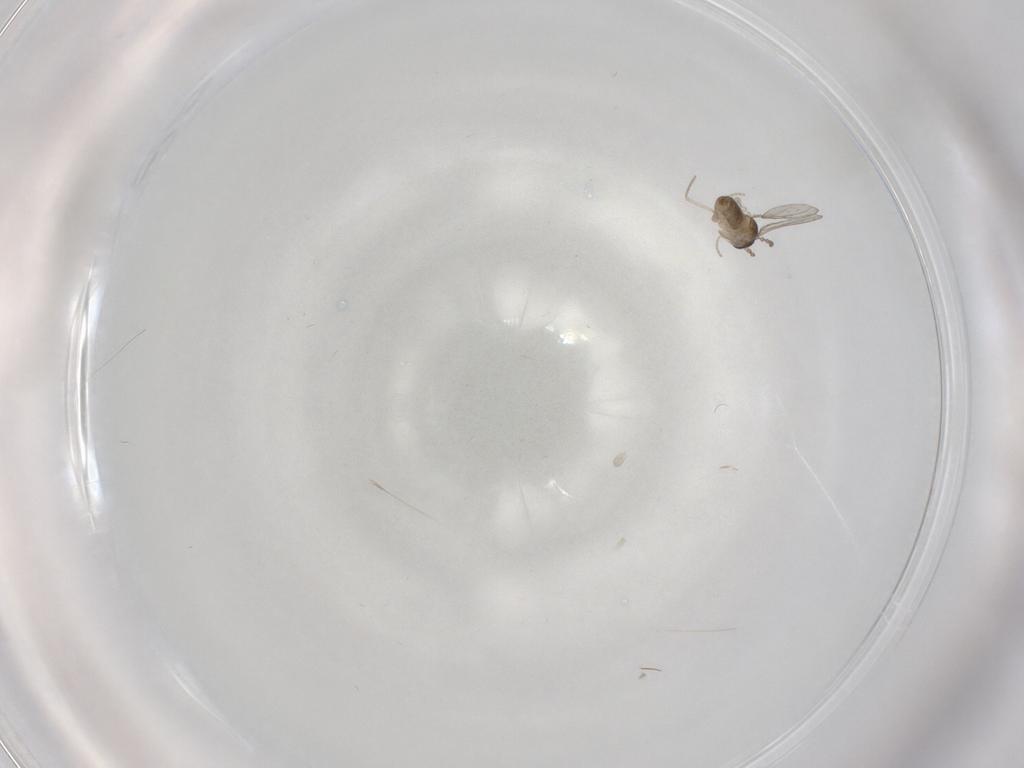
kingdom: Animalia
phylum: Arthropoda
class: Insecta
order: Diptera
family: Cecidomyiidae
